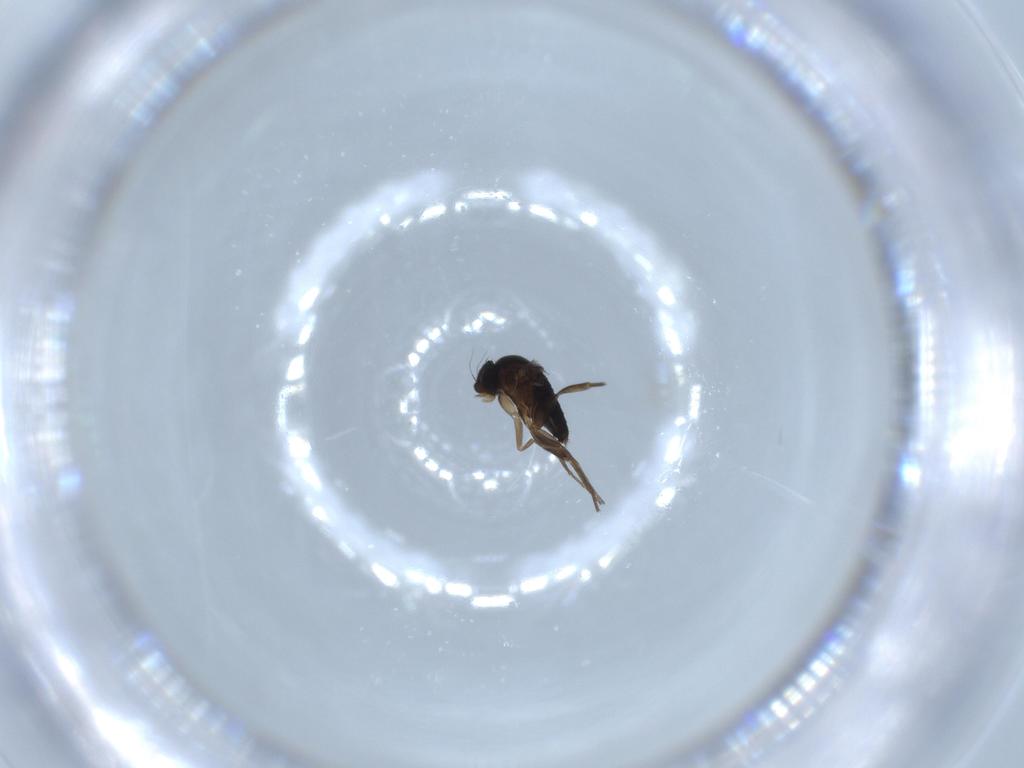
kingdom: Animalia
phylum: Arthropoda
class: Insecta
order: Diptera
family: Phoridae
